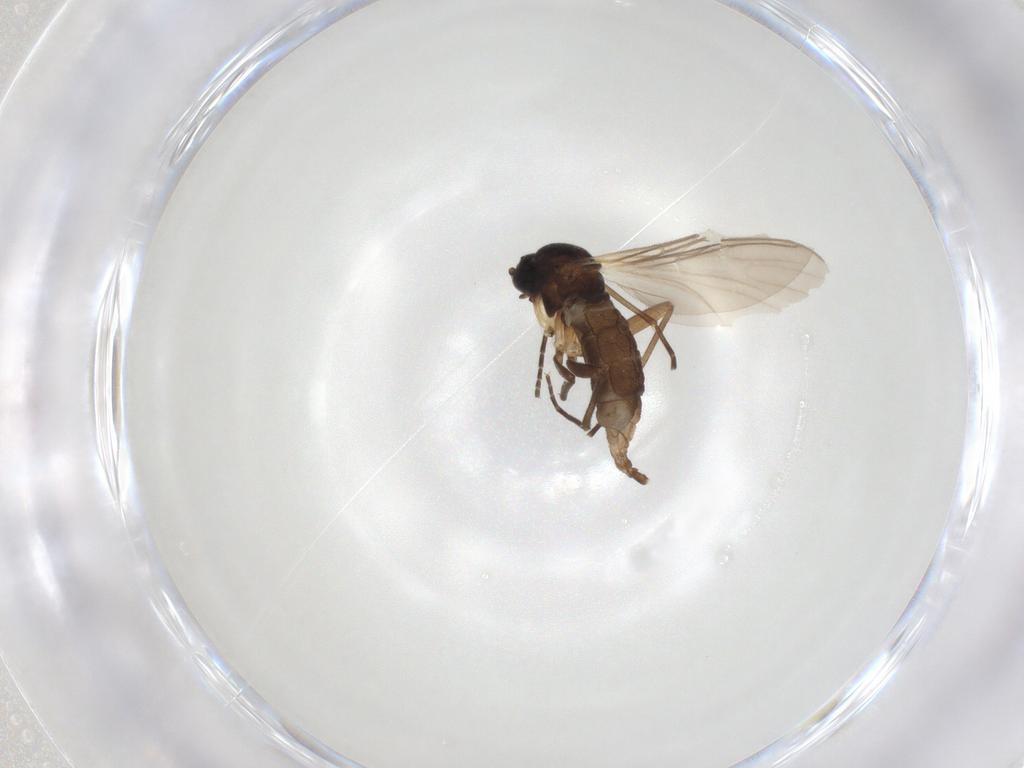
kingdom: Animalia
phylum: Arthropoda
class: Insecta
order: Diptera
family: Sciaridae
